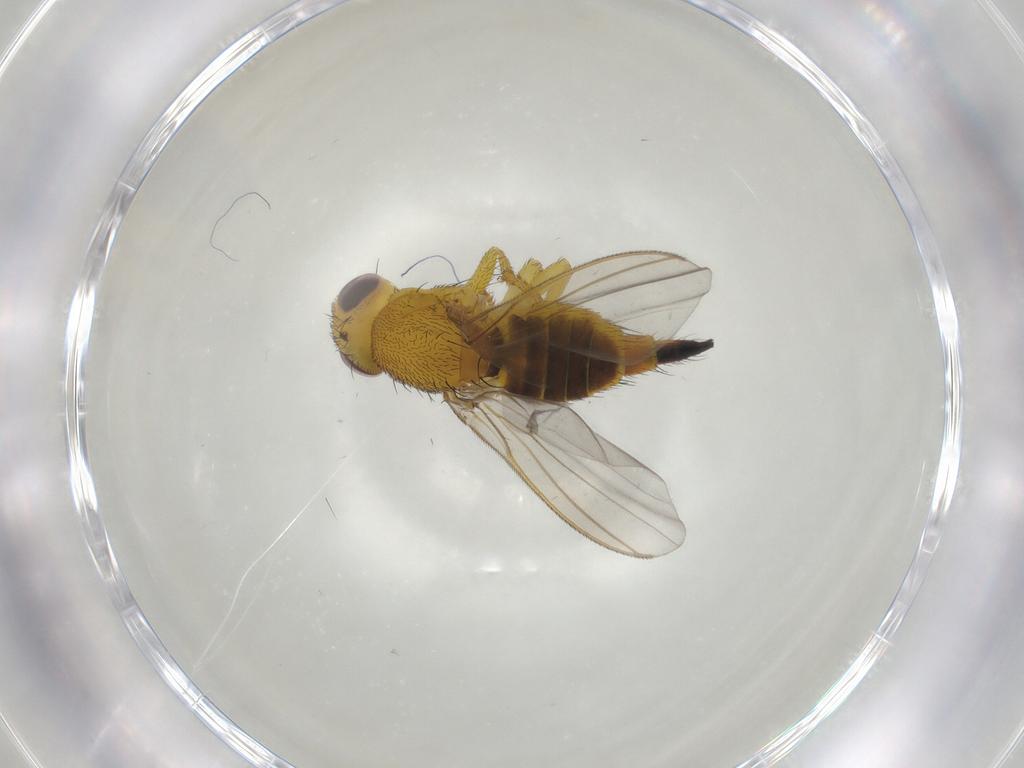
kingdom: Animalia
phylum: Arthropoda
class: Insecta
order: Diptera
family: Fergusoninidae
